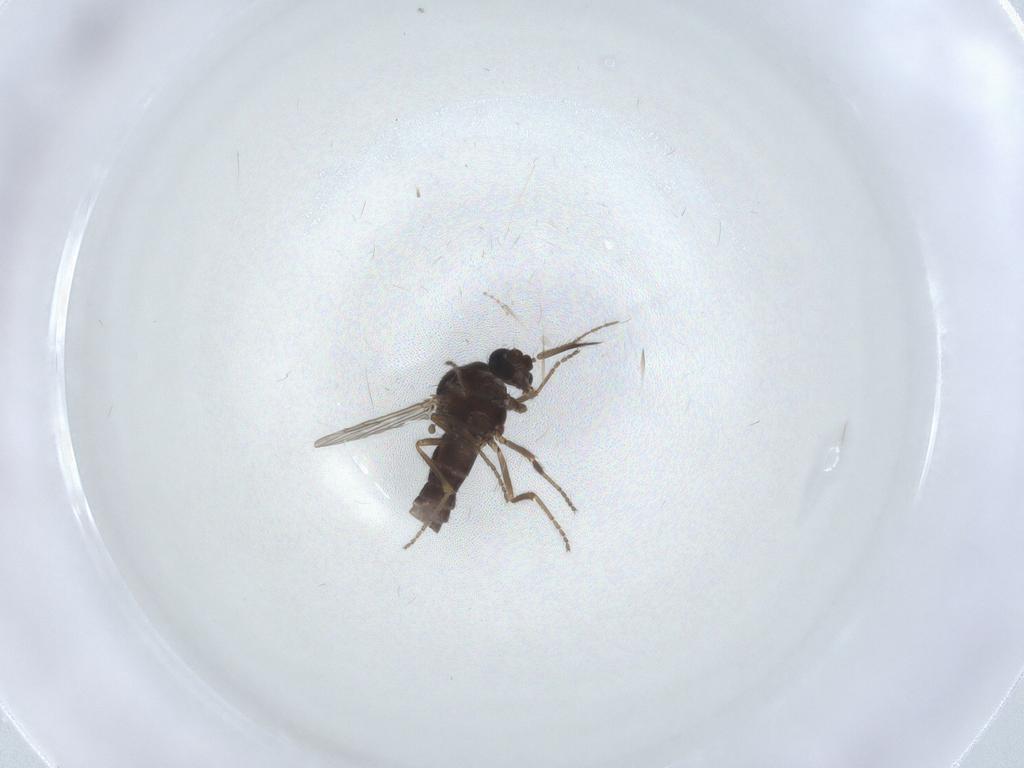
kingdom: Animalia
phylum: Arthropoda
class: Insecta
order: Diptera
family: Ceratopogonidae
